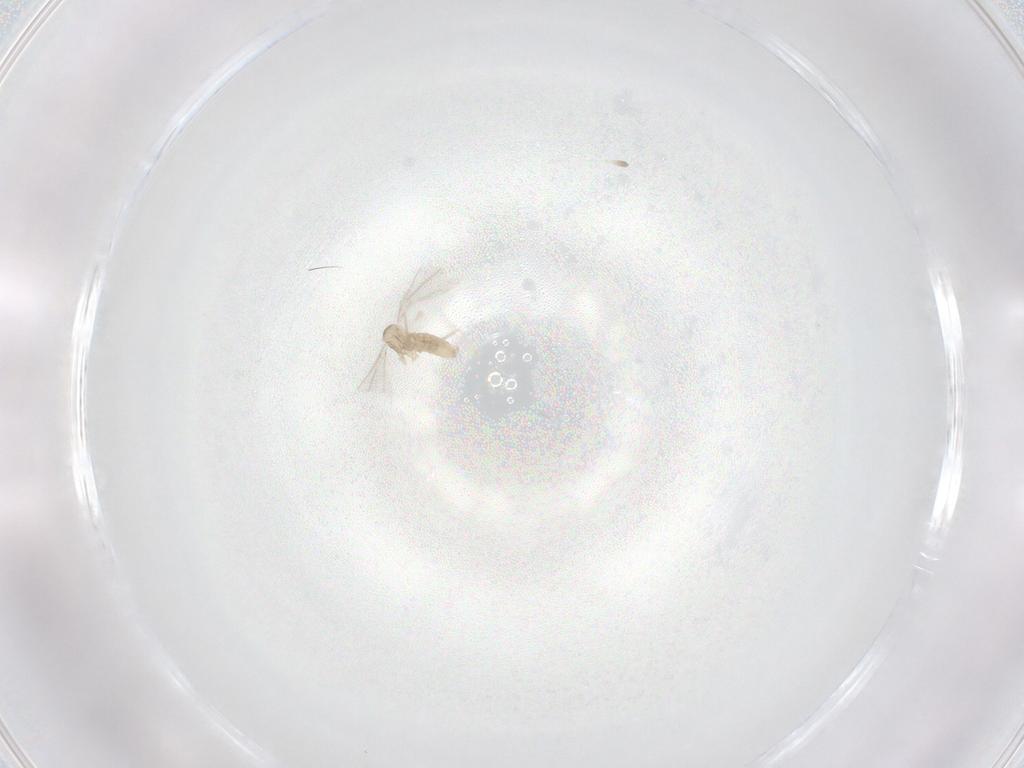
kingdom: Animalia
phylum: Arthropoda
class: Insecta
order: Diptera
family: Cecidomyiidae
